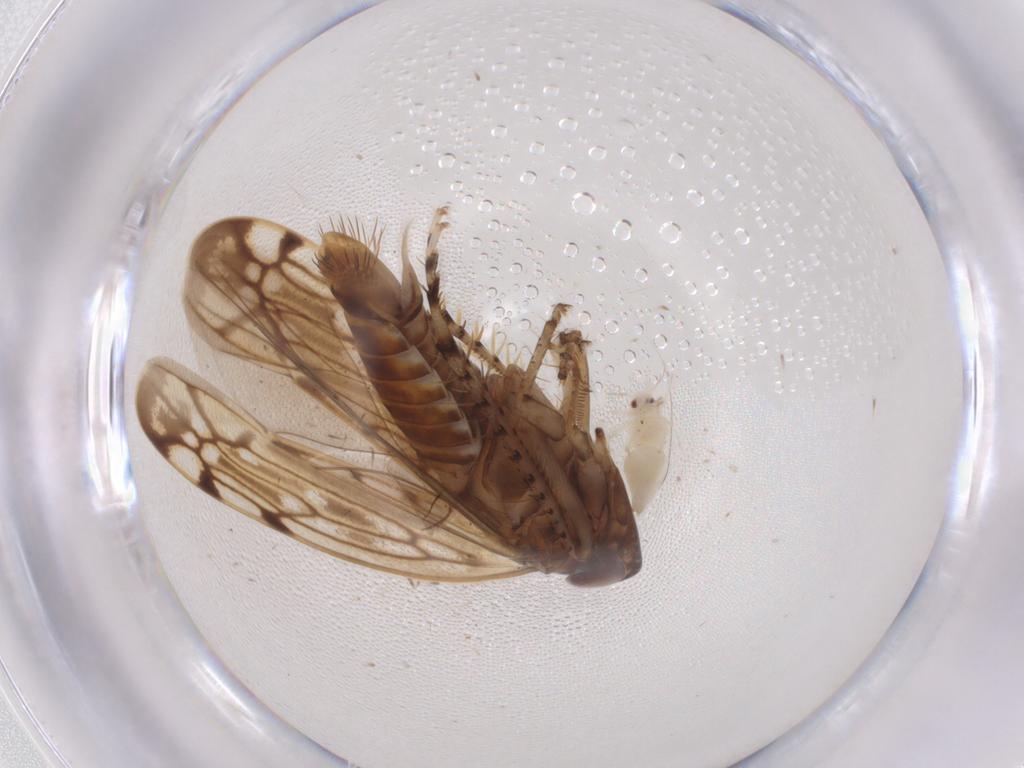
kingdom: Animalia
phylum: Arthropoda
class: Insecta
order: Hemiptera
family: Aleyrodidae
